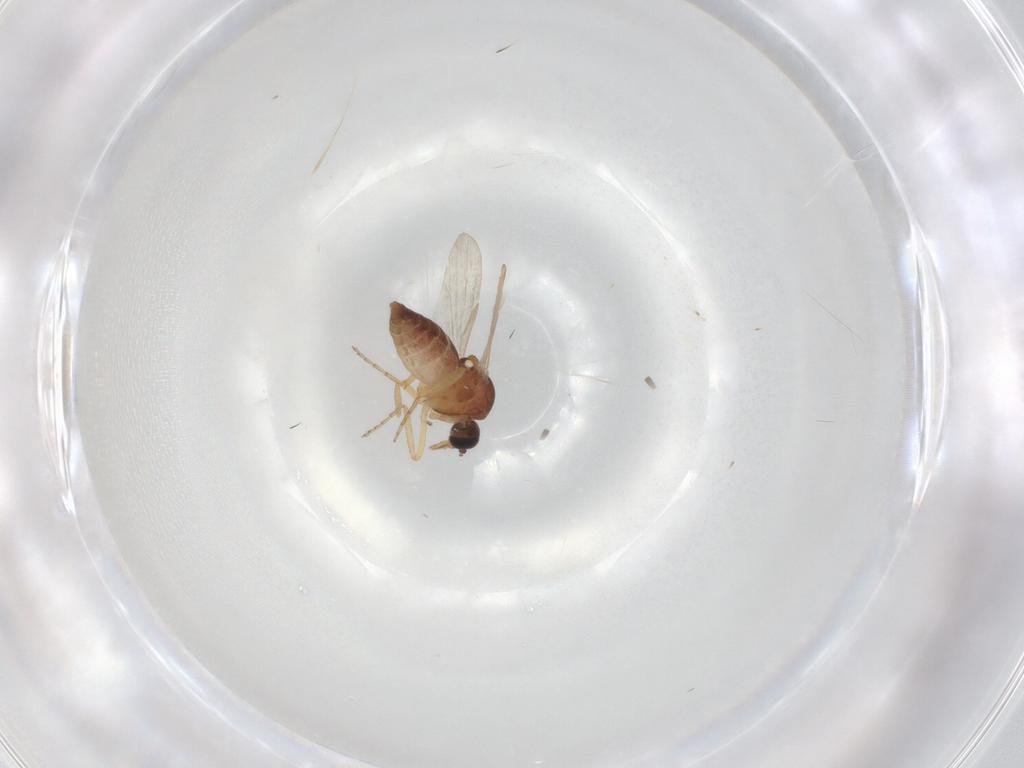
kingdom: Animalia
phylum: Arthropoda
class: Insecta
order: Diptera
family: Ceratopogonidae
